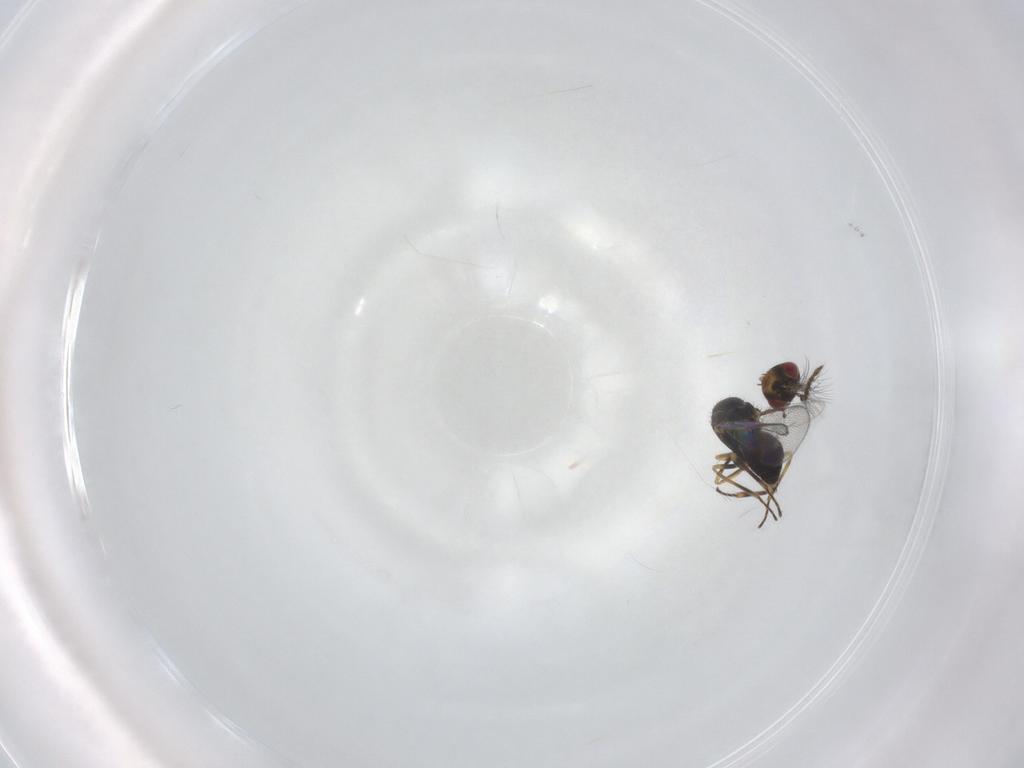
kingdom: Animalia
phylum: Arthropoda
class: Insecta
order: Hymenoptera
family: Eulophidae
